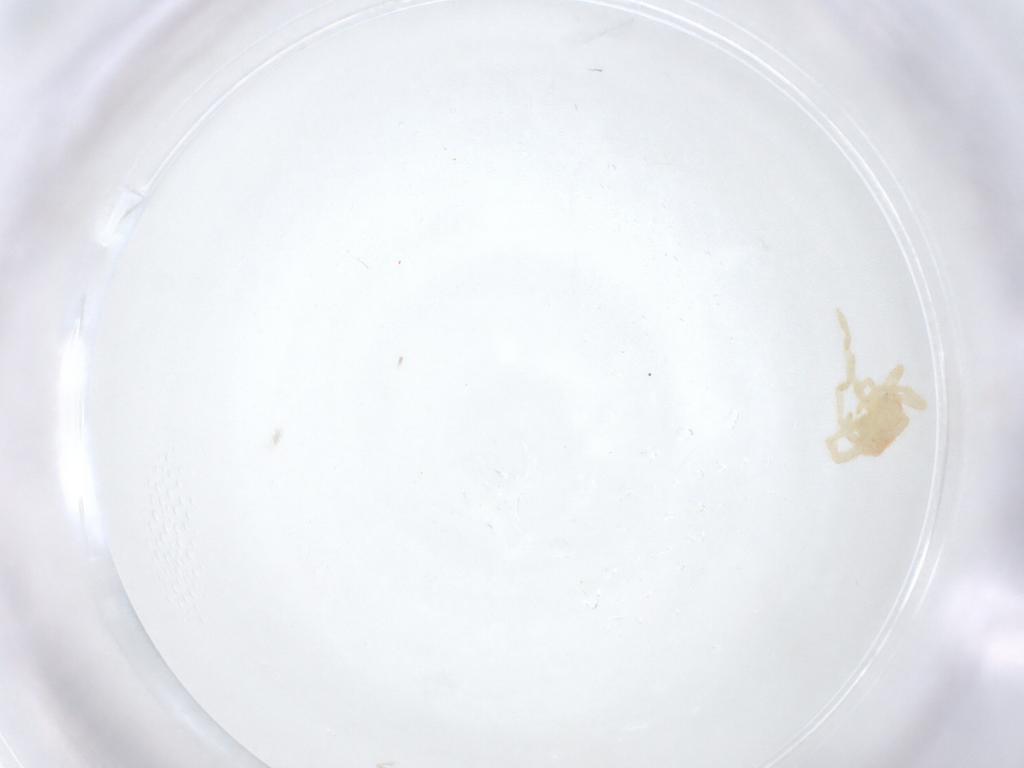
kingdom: Animalia
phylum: Arthropoda
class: Arachnida
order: Trombidiformes
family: Erythraeidae
